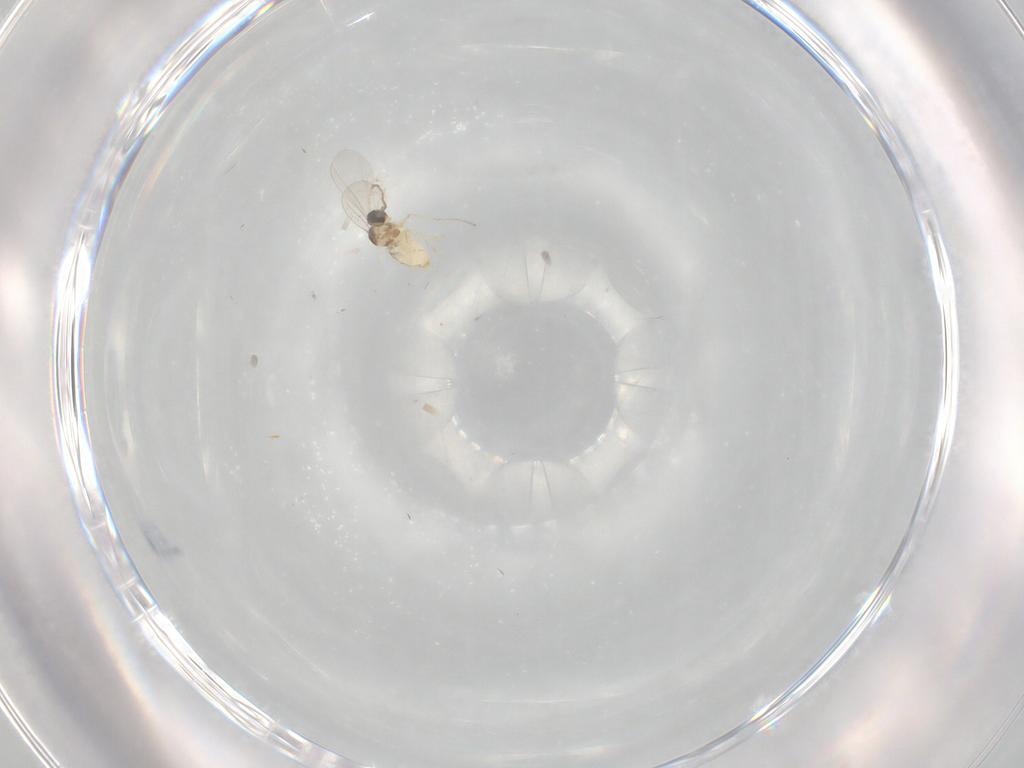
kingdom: Animalia
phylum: Arthropoda
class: Insecta
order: Diptera
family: Cecidomyiidae
